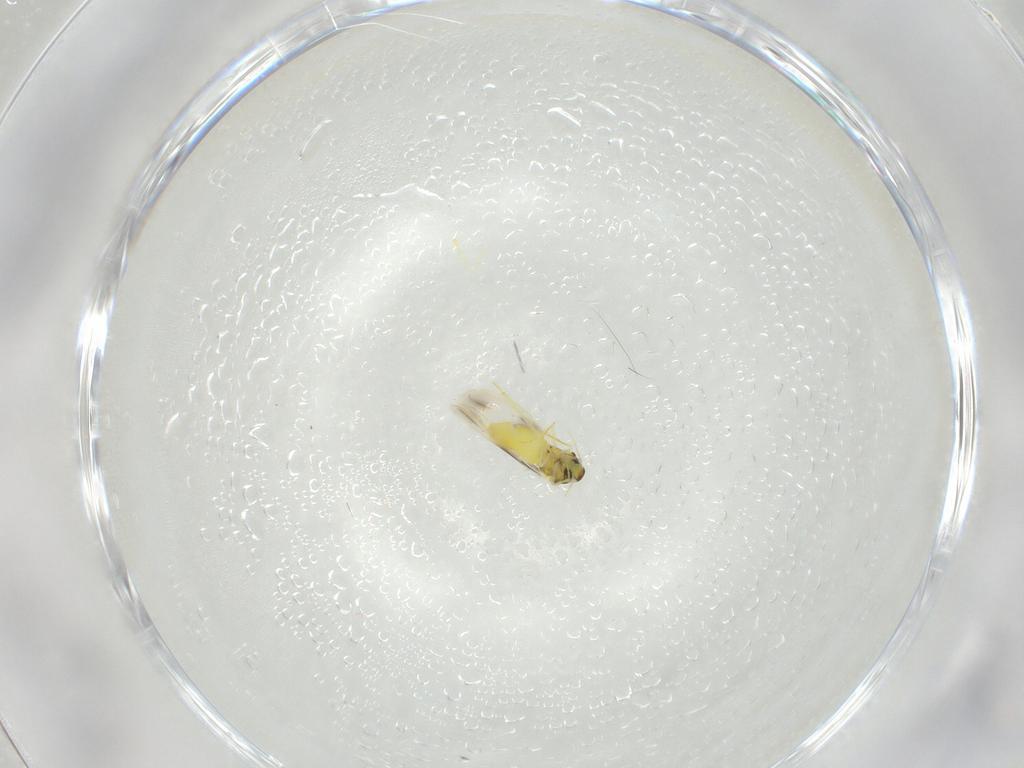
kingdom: Animalia
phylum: Arthropoda
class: Insecta
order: Hemiptera
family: Aleyrodidae
